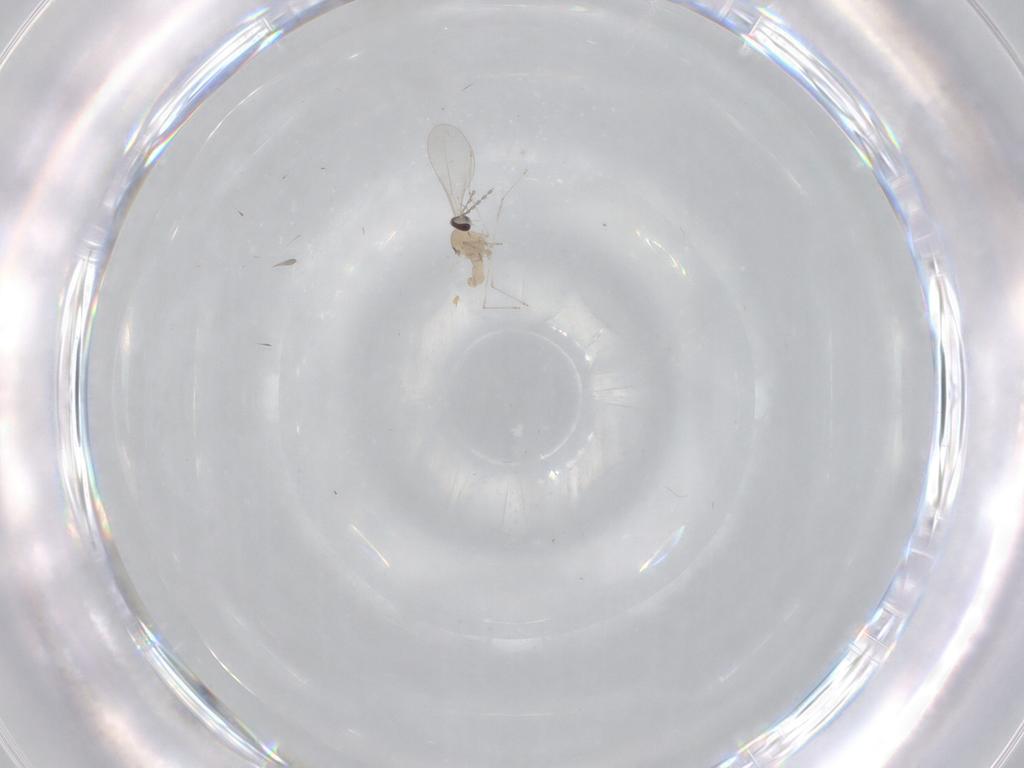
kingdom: Animalia
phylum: Arthropoda
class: Insecta
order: Diptera
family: Cecidomyiidae
